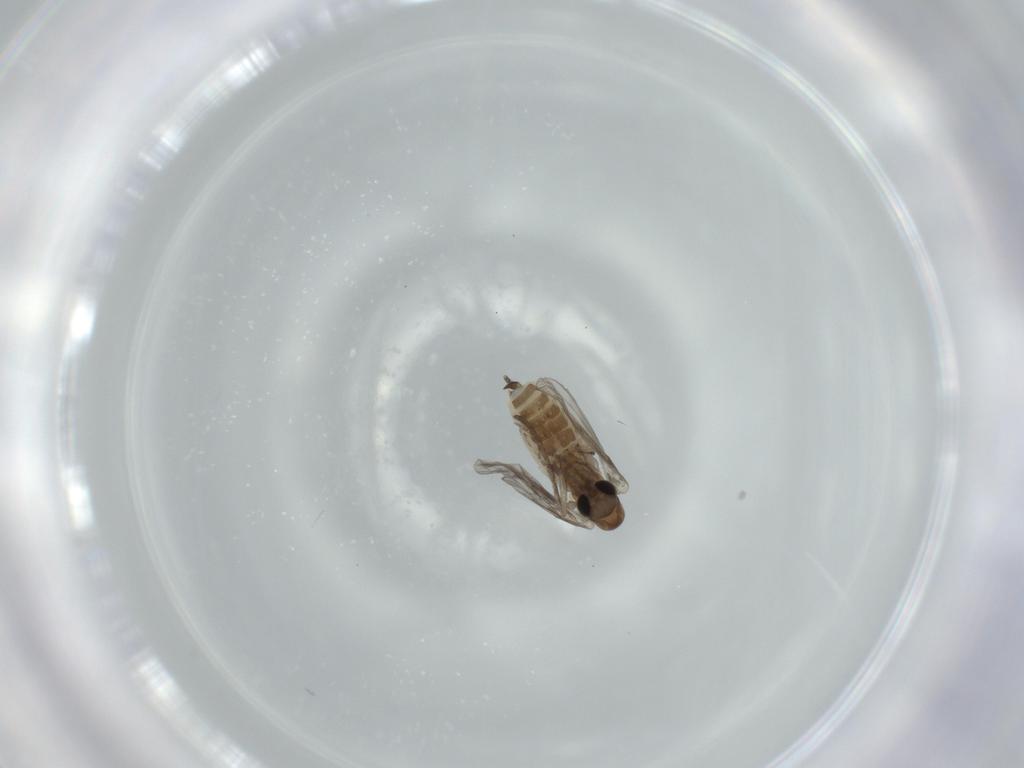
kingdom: Animalia
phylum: Arthropoda
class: Insecta
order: Diptera
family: Psychodidae
